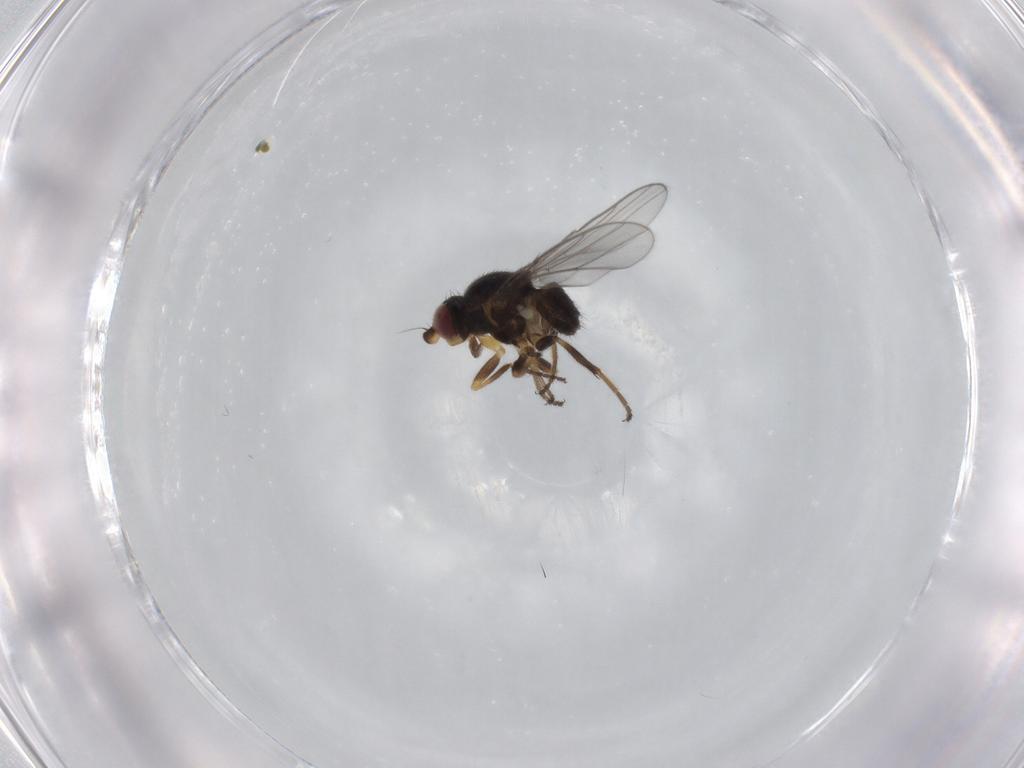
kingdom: Animalia
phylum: Arthropoda
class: Insecta
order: Diptera
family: Chloropidae
